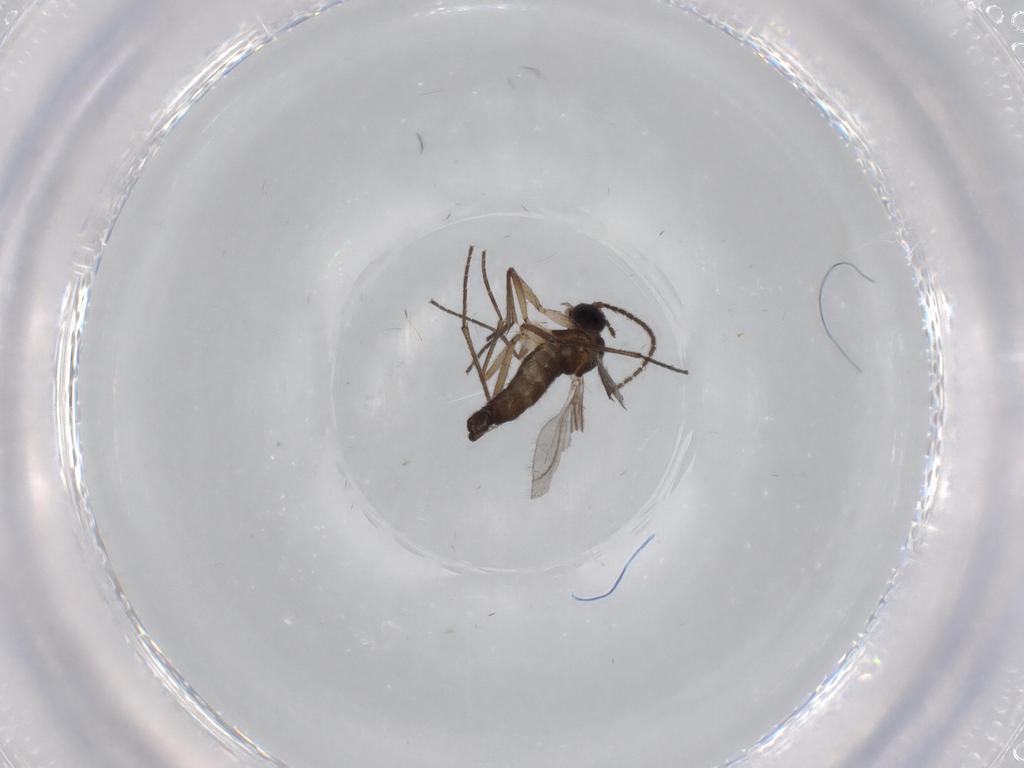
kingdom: Animalia
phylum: Arthropoda
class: Insecta
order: Diptera
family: Sciaridae
